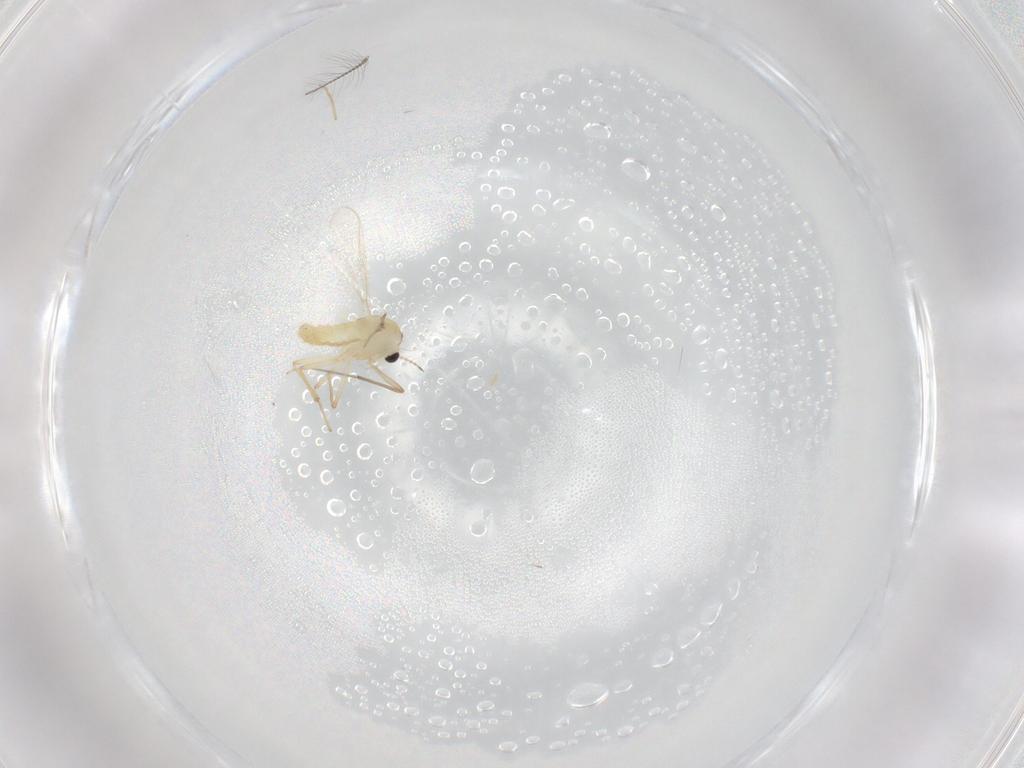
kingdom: Animalia
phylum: Arthropoda
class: Insecta
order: Diptera
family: Chironomidae
